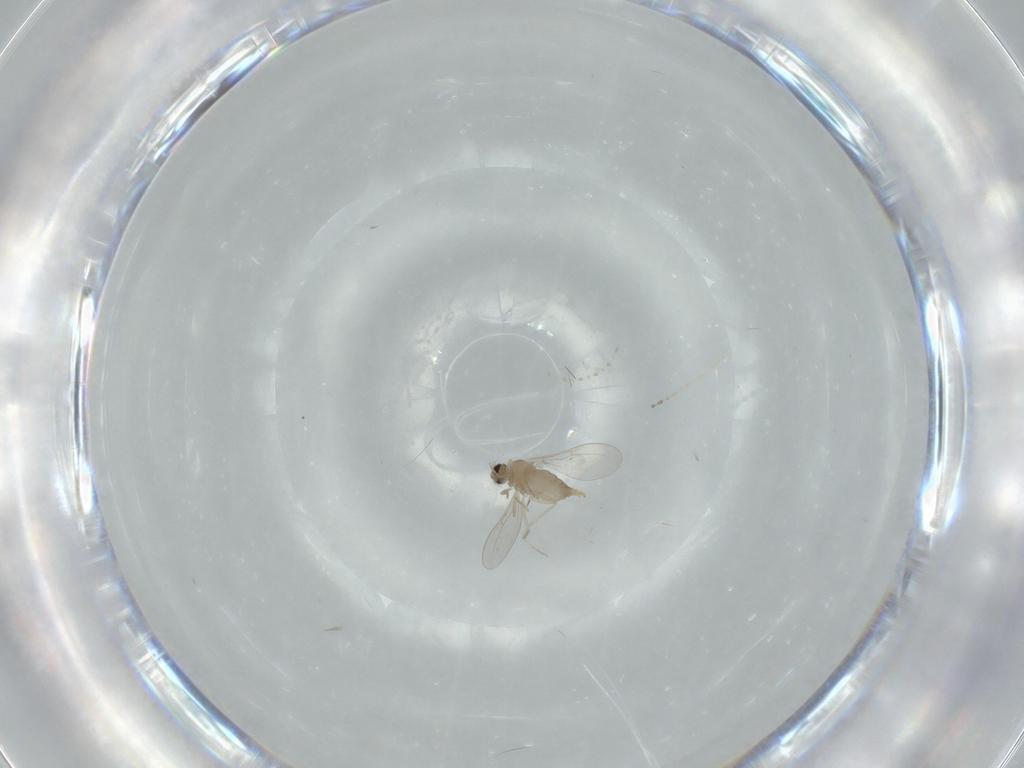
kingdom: Animalia
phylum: Arthropoda
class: Insecta
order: Diptera
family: Cecidomyiidae
